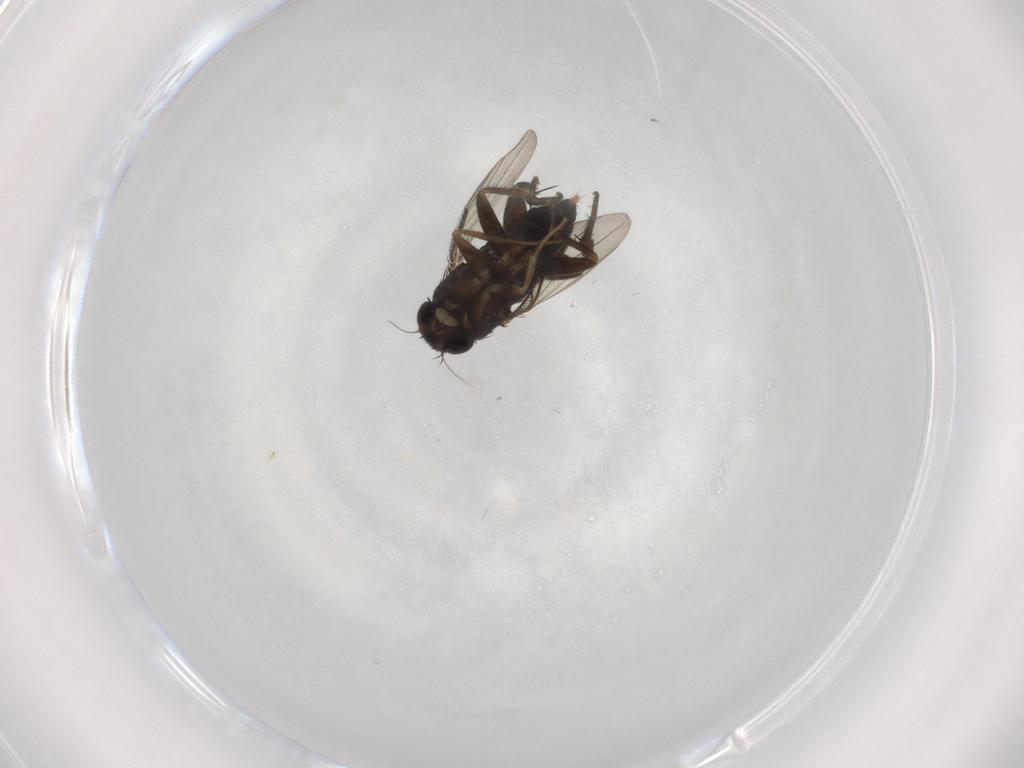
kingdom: Animalia
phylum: Arthropoda
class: Insecta
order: Diptera
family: Phoridae
